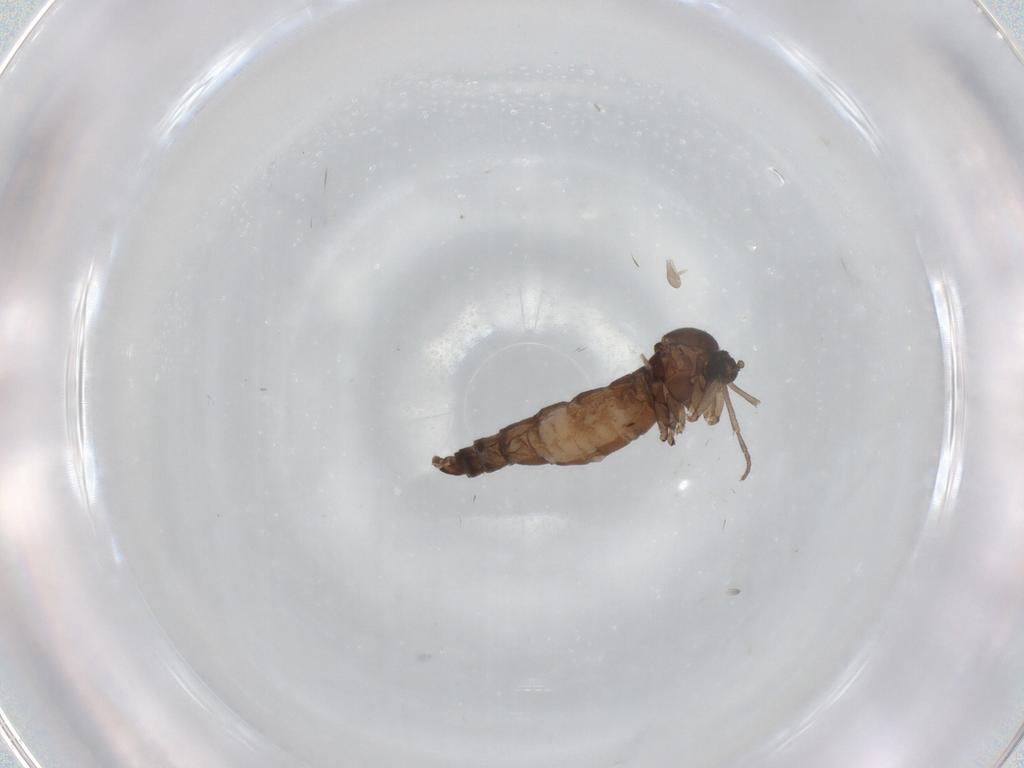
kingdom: Animalia
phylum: Arthropoda
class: Insecta
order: Diptera
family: Sciaridae
